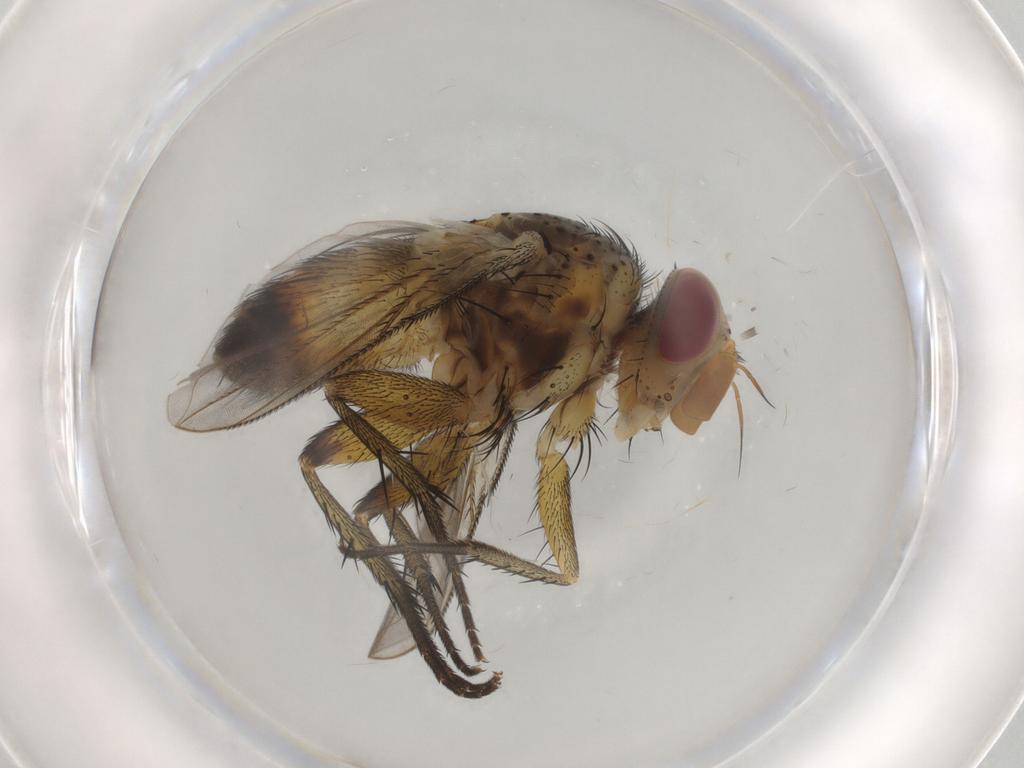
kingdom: Animalia
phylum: Arthropoda
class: Insecta
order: Diptera
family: Tachinidae
